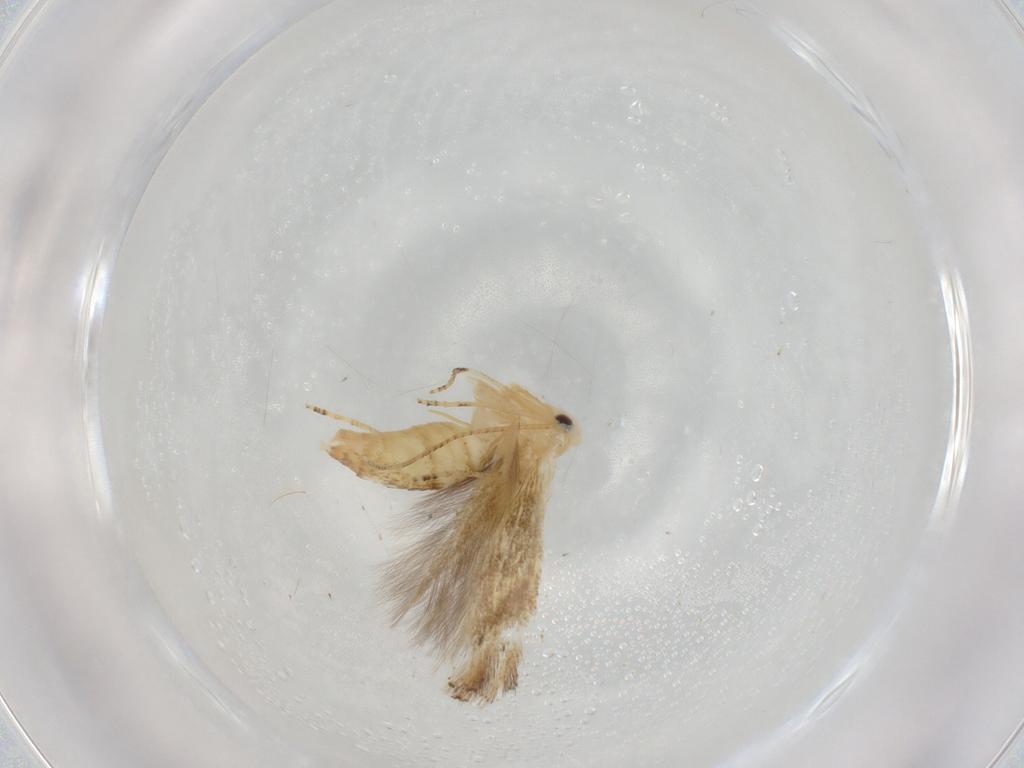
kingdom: Animalia
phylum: Arthropoda
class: Insecta
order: Lepidoptera
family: Bucculatricidae
